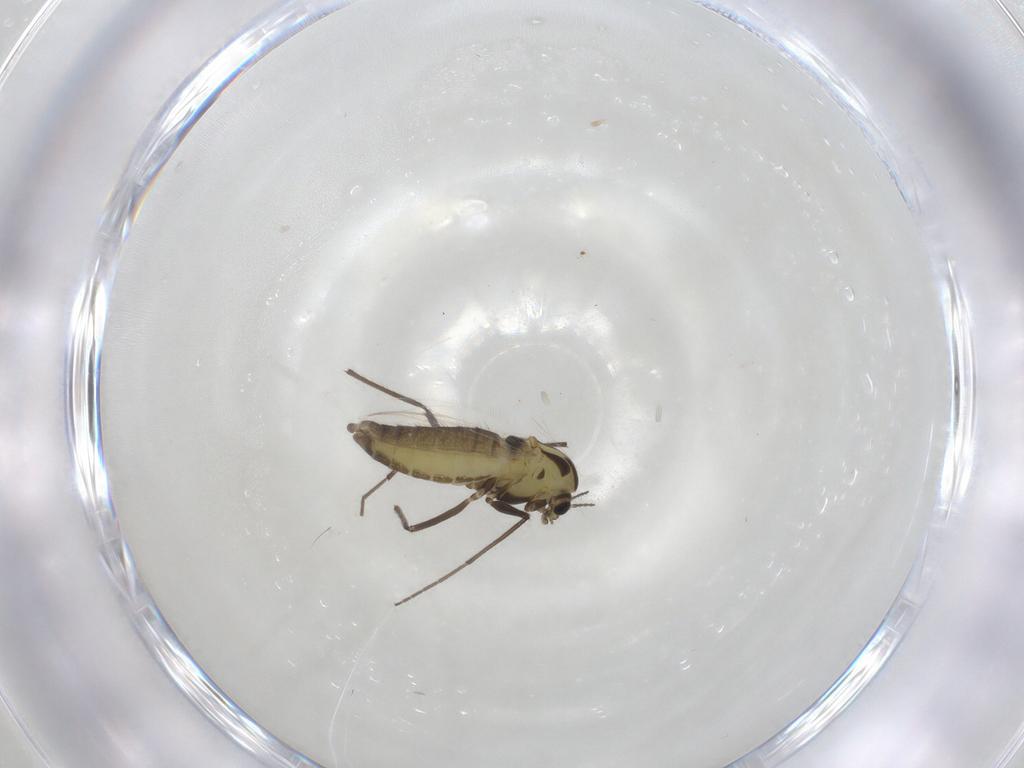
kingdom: Animalia
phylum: Arthropoda
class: Insecta
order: Diptera
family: Chironomidae
